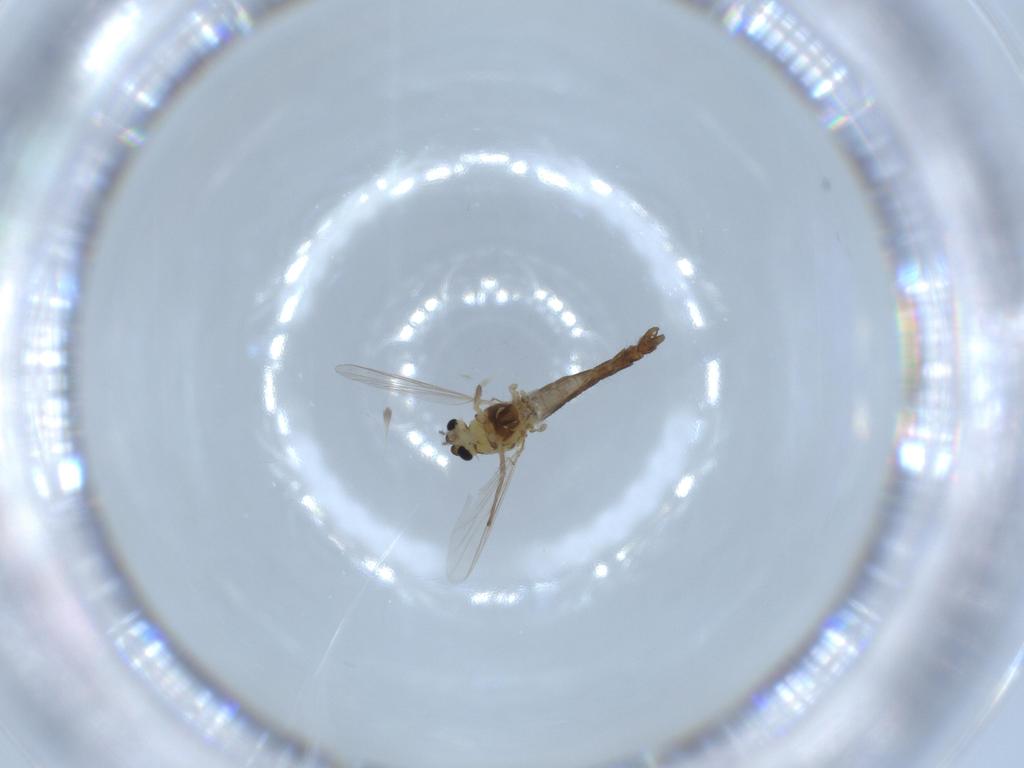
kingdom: Animalia
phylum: Arthropoda
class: Insecta
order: Diptera
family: Chironomidae
